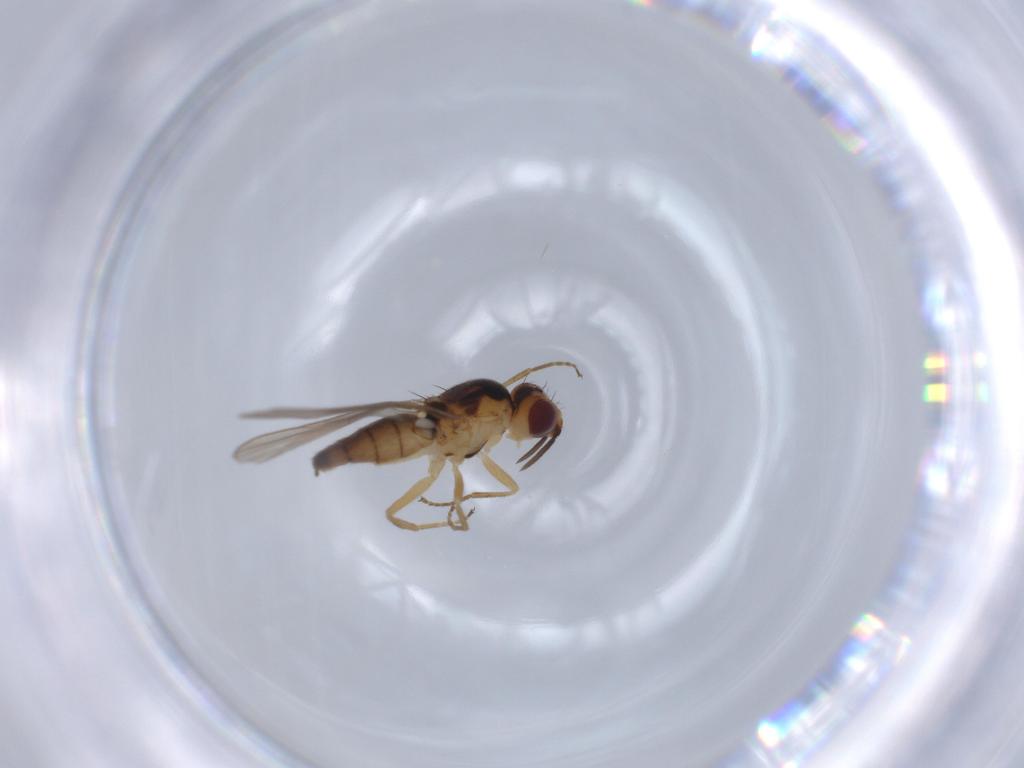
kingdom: Animalia
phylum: Arthropoda
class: Insecta
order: Diptera
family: Chloropidae
